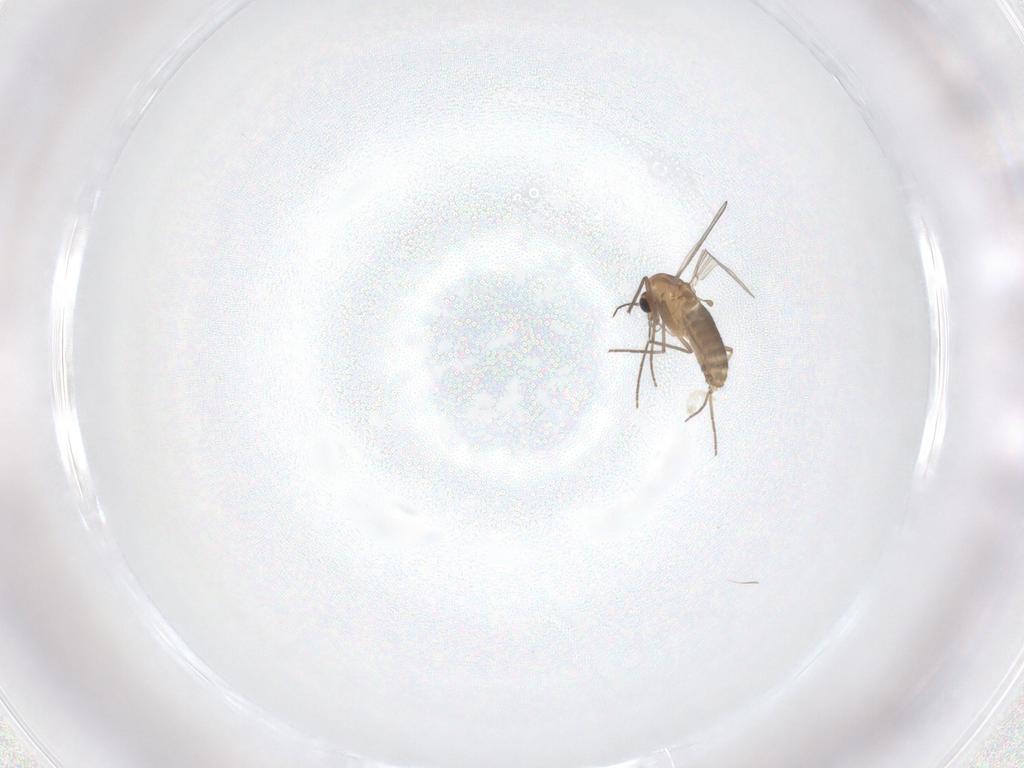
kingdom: Animalia
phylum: Arthropoda
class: Insecta
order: Diptera
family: Chironomidae
